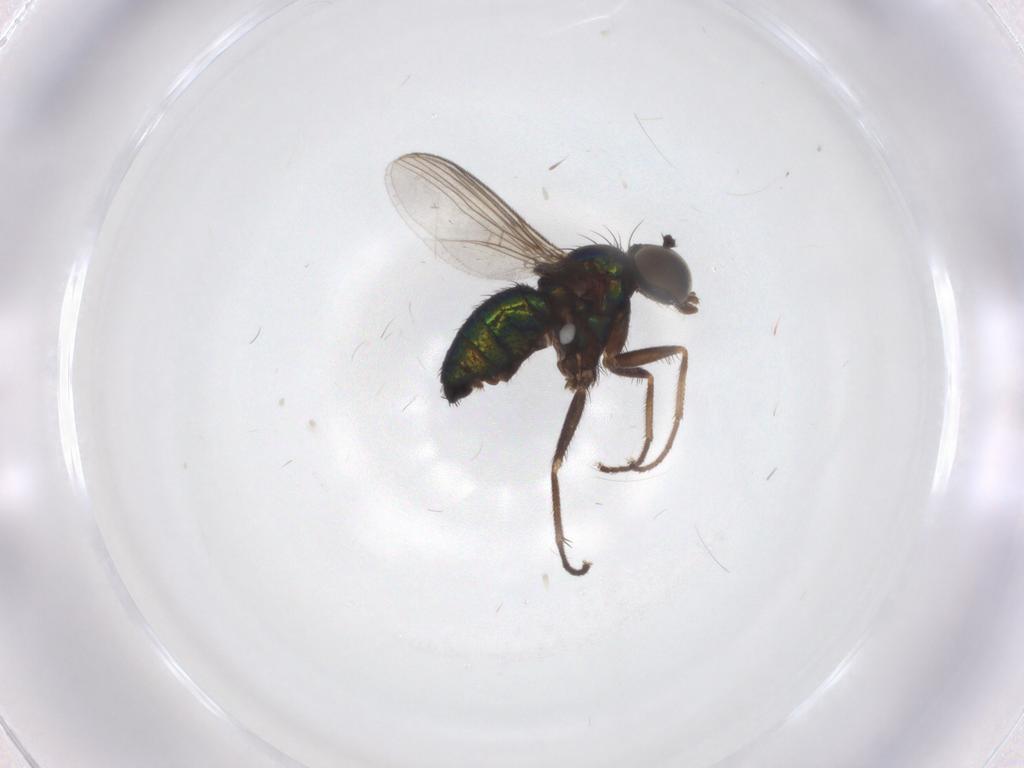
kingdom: Animalia
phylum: Arthropoda
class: Insecta
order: Diptera
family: Dolichopodidae
